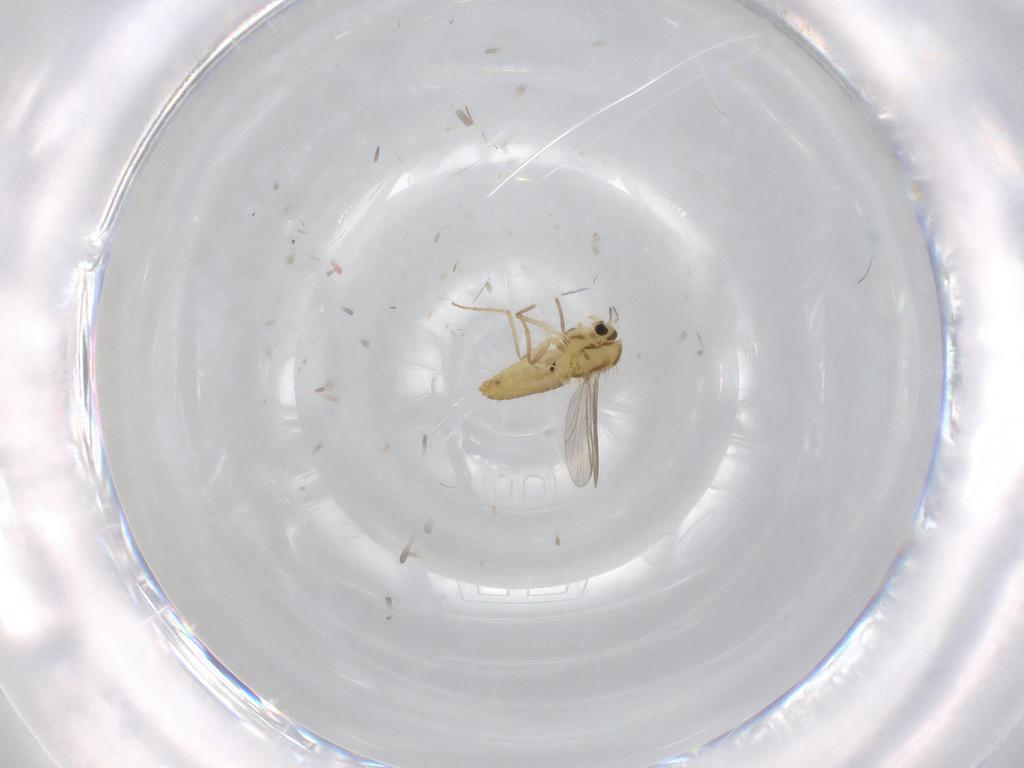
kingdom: Animalia
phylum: Arthropoda
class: Insecta
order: Diptera
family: Chironomidae
